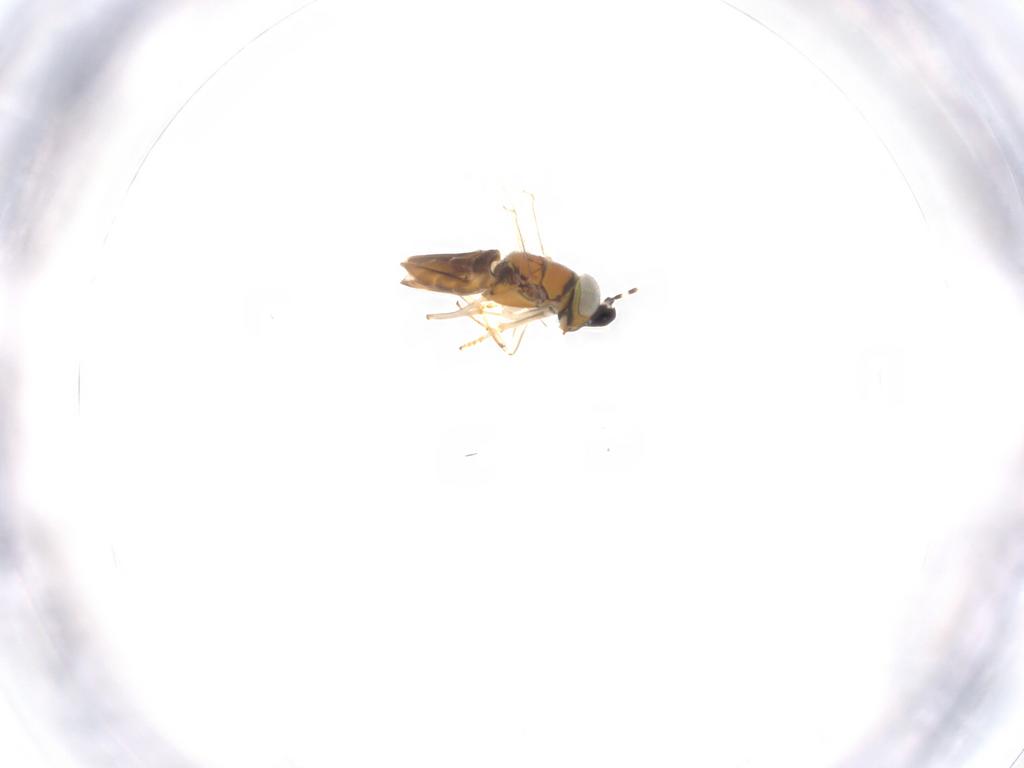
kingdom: Animalia
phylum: Arthropoda
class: Insecta
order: Hymenoptera
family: Encyrtidae
